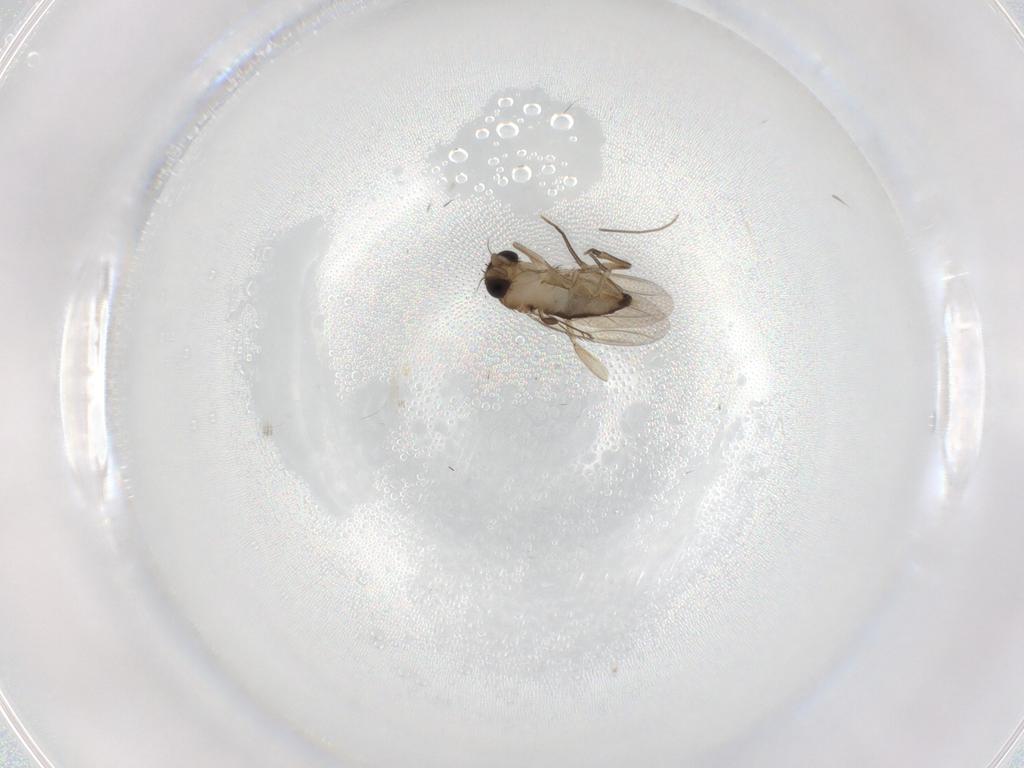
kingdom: Animalia
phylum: Arthropoda
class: Insecta
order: Diptera
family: Phoridae
